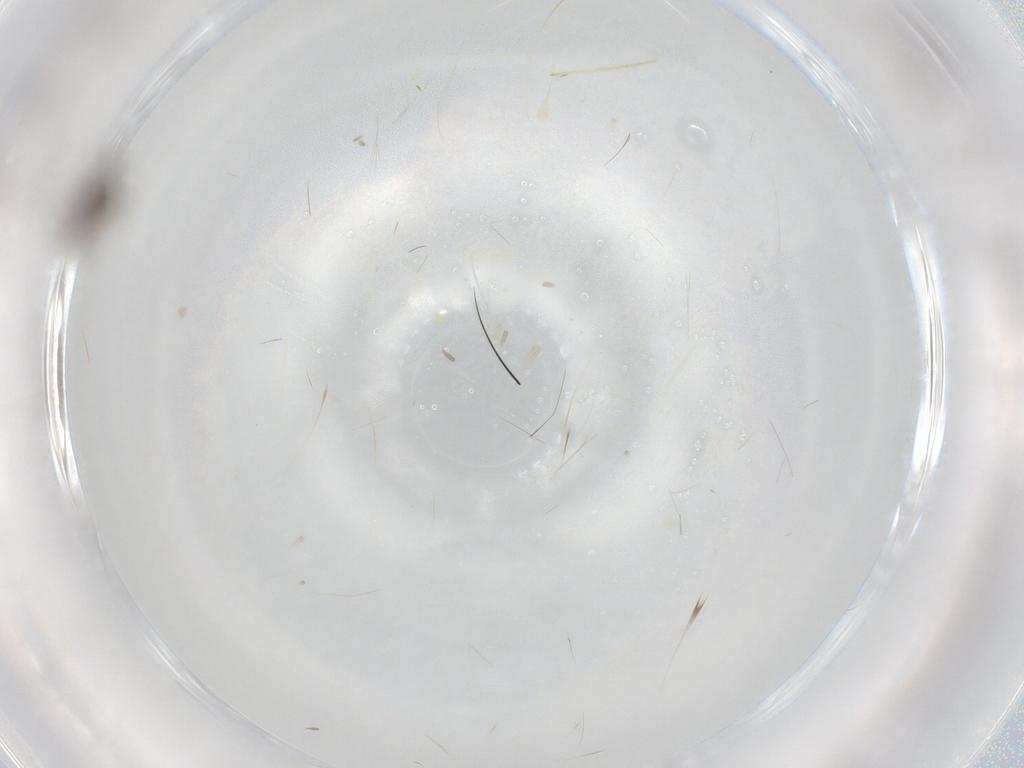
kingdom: Animalia
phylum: Arthropoda
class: Insecta
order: Diptera
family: Ceratopogonidae
